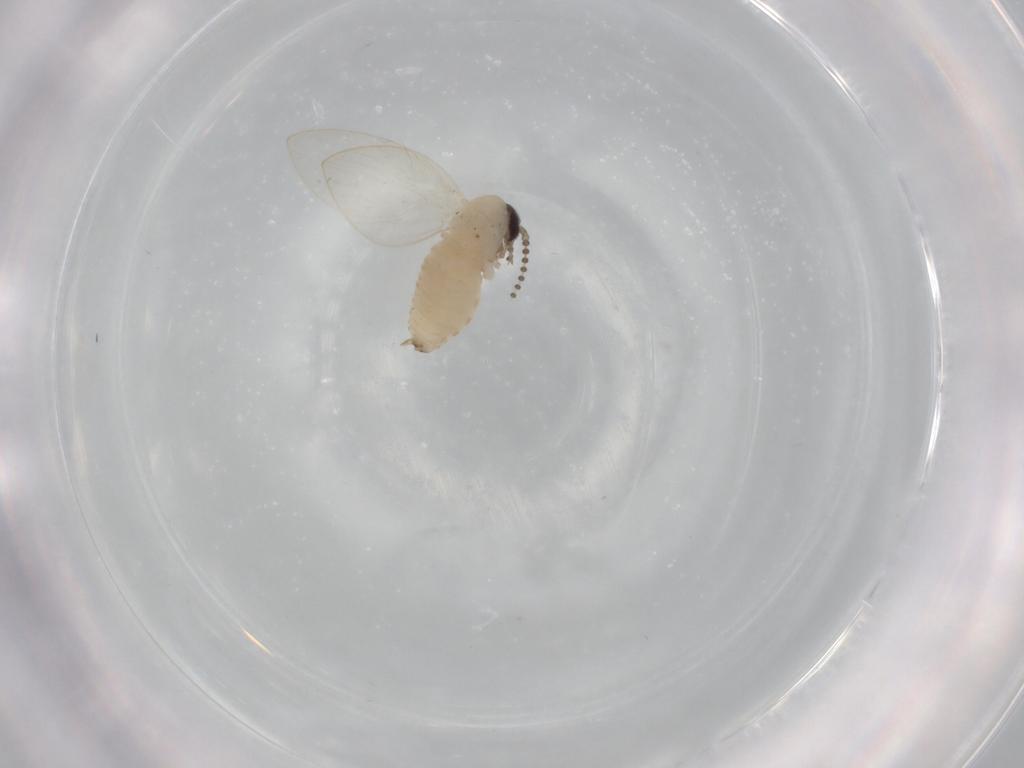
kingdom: Animalia
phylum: Arthropoda
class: Insecta
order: Diptera
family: Psychodidae
